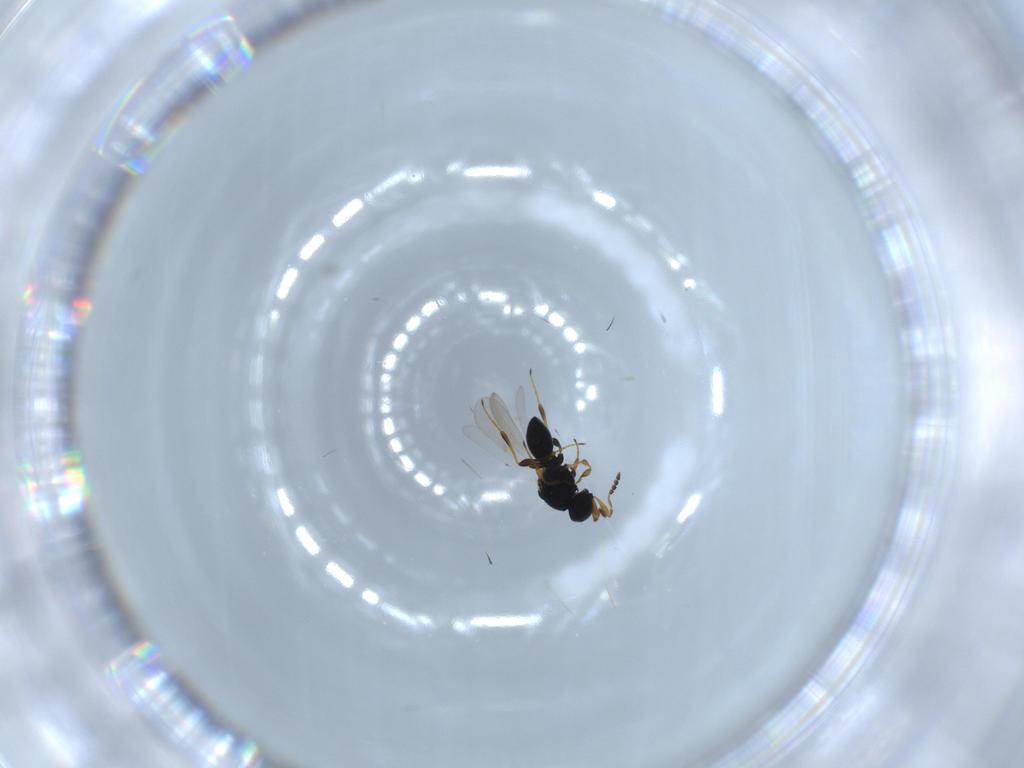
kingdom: Animalia
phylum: Arthropoda
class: Insecta
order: Hymenoptera
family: Platygastridae
